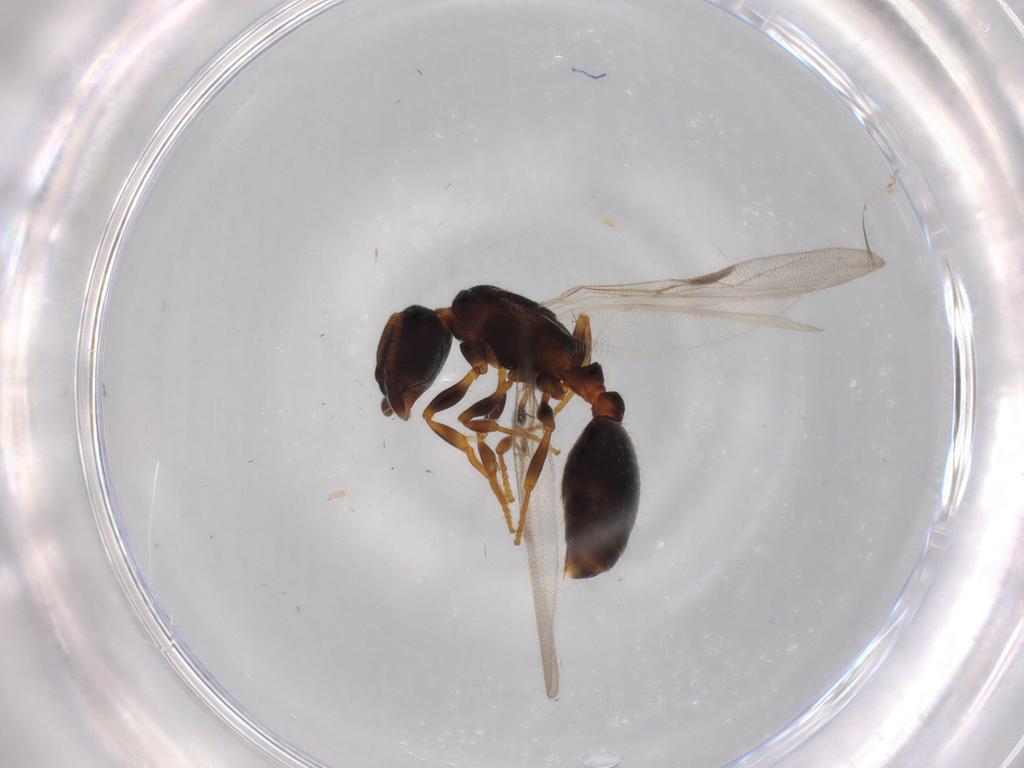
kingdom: Animalia
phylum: Arthropoda
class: Insecta
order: Hymenoptera
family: Formicidae
